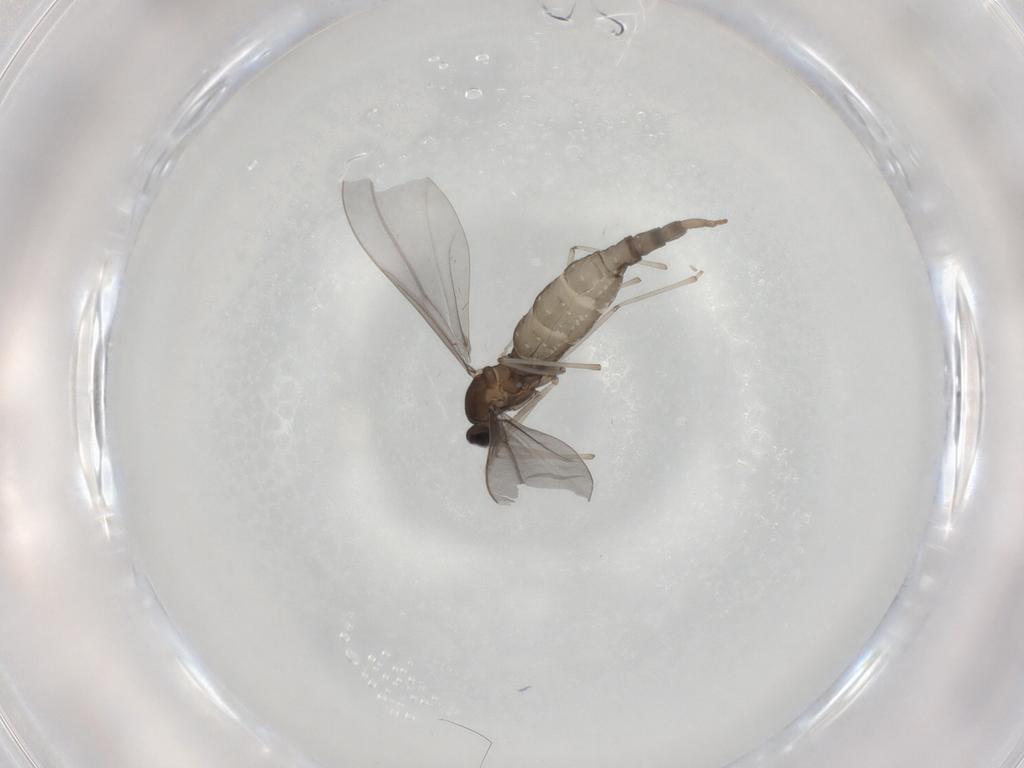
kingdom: Animalia
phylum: Arthropoda
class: Insecta
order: Diptera
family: Cecidomyiidae
